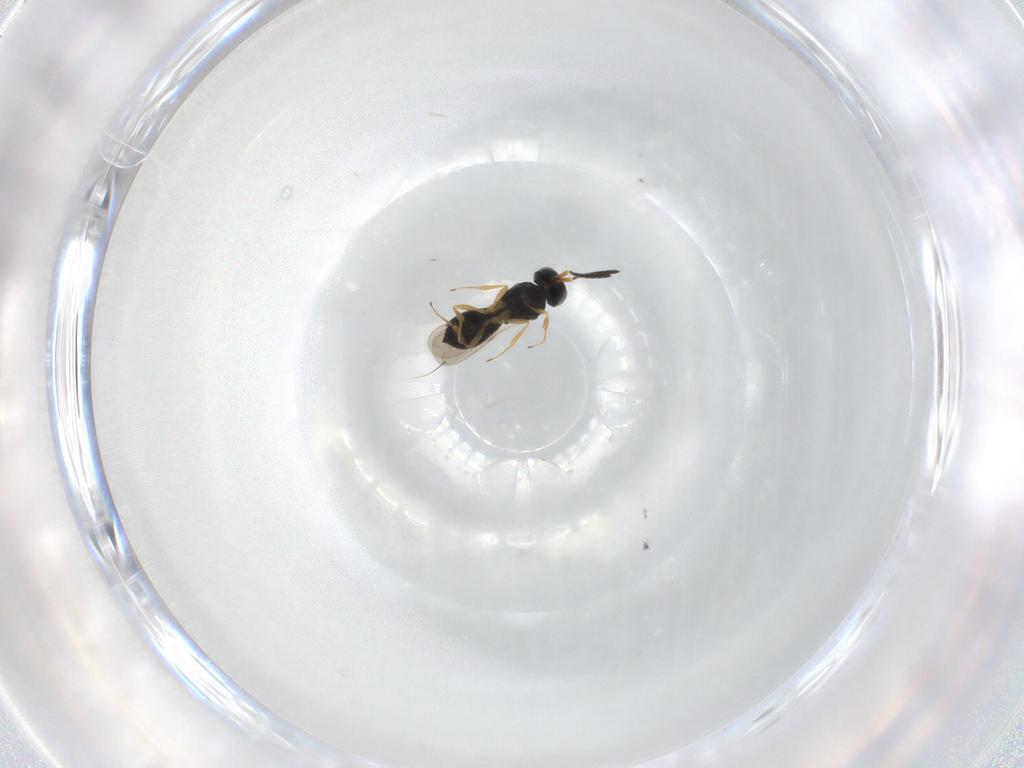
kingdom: Animalia
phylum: Arthropoda
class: Insecta
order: Hymenoptera
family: Scelionidae
